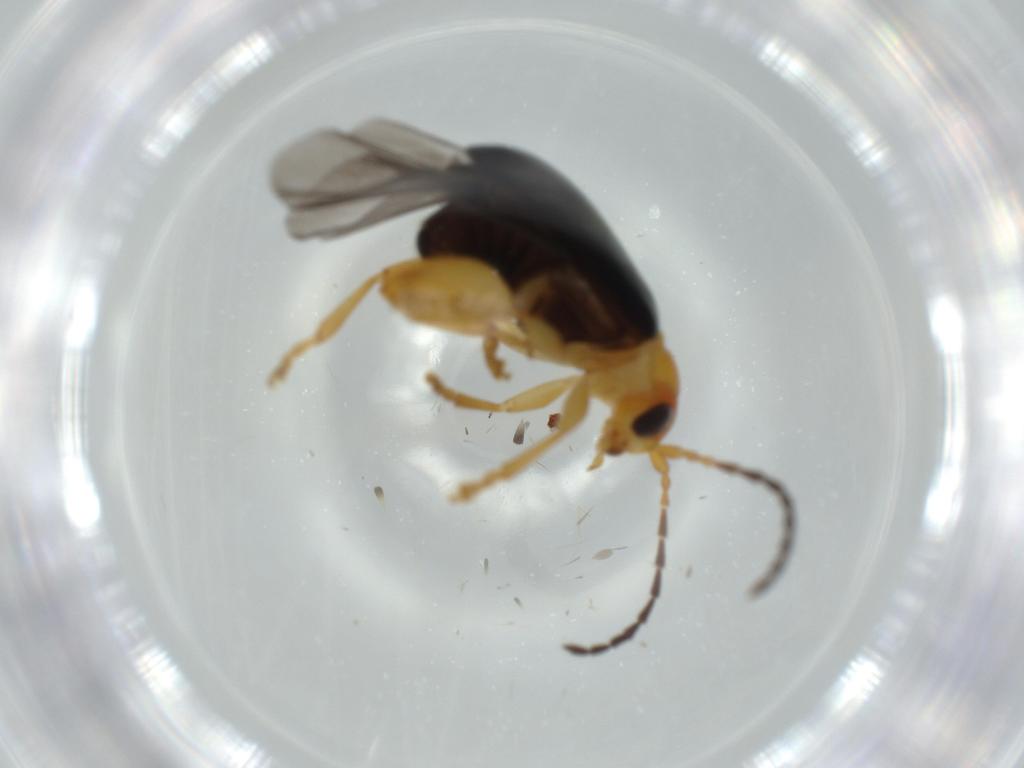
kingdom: Animalia
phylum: Arthropoda
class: Insecta
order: Coleoptera
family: Chrysomelidae
